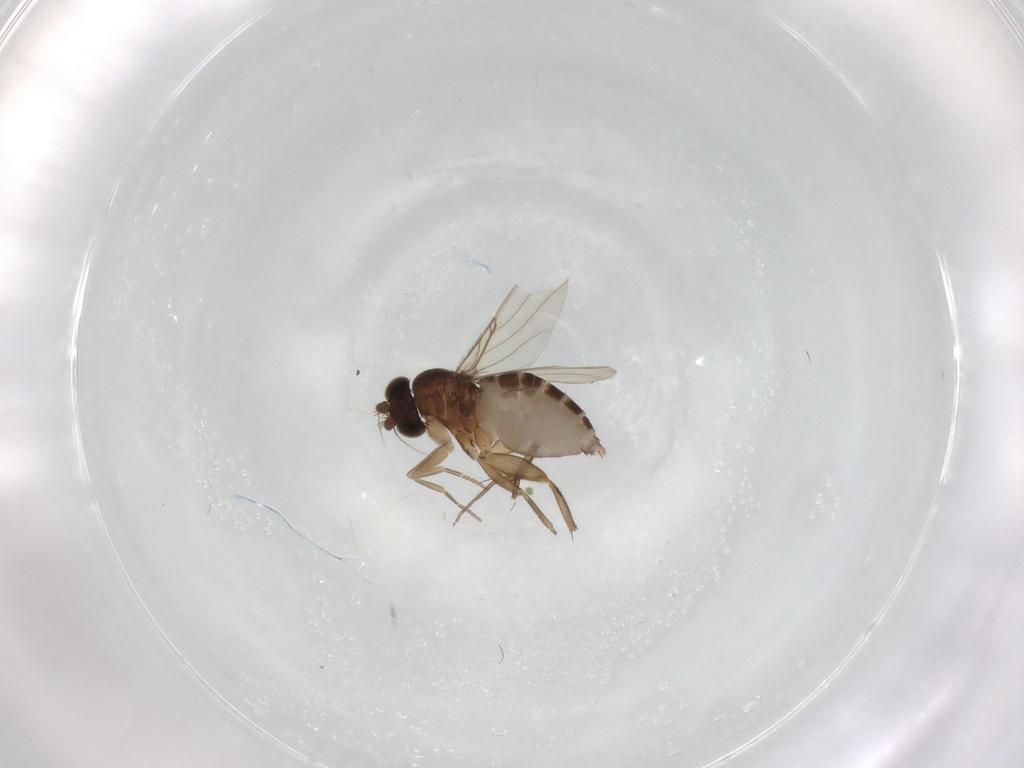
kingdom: Animalia
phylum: Arthropoda
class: Insecta
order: Diptera
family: Phoridae
